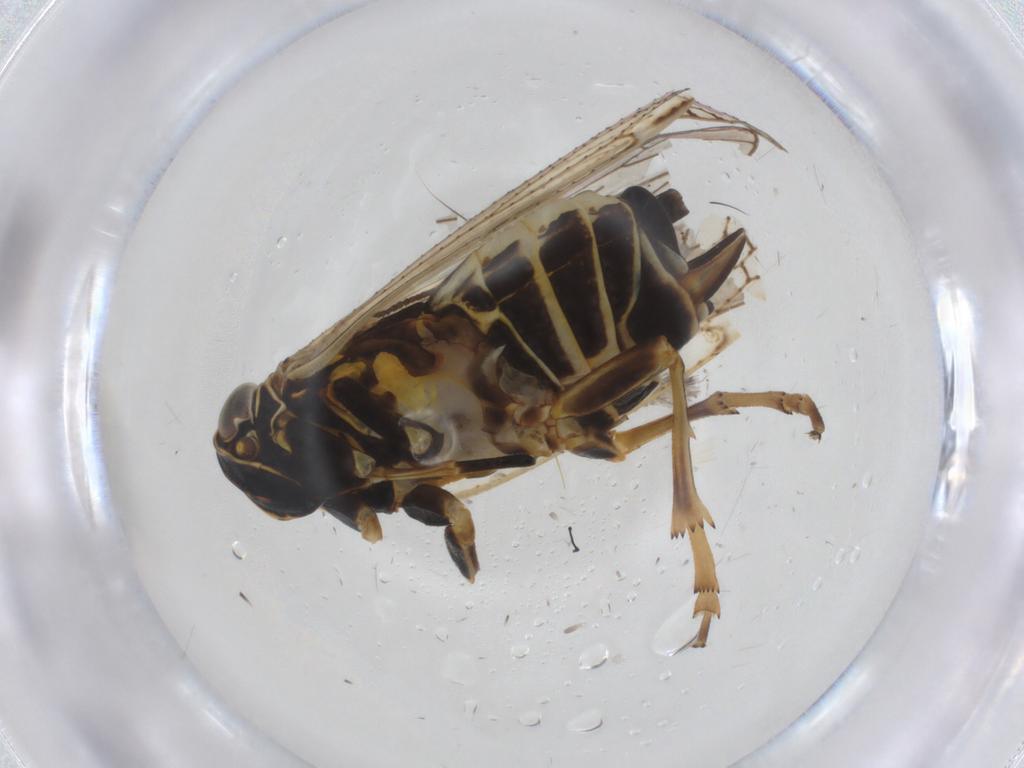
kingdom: Animalia
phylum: Arthropoda
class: Insecta
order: Hemiptera
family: Cixiidae
